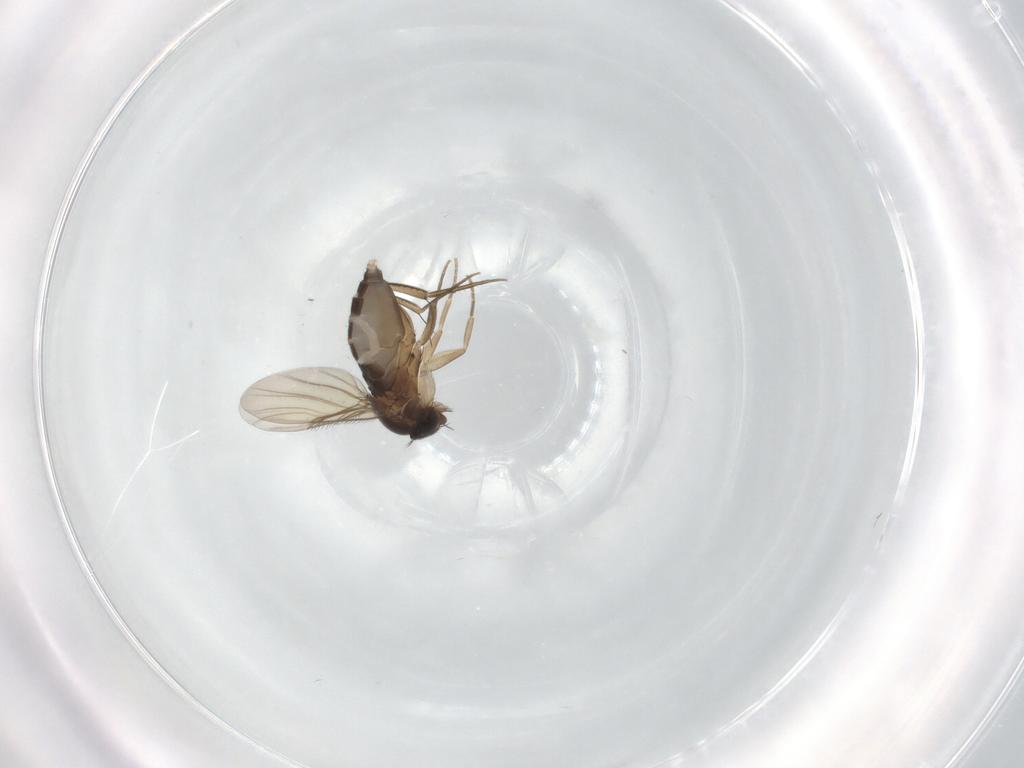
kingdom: Animalia
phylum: Arthropoda
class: Insecta
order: Diptera
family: Phoridae
